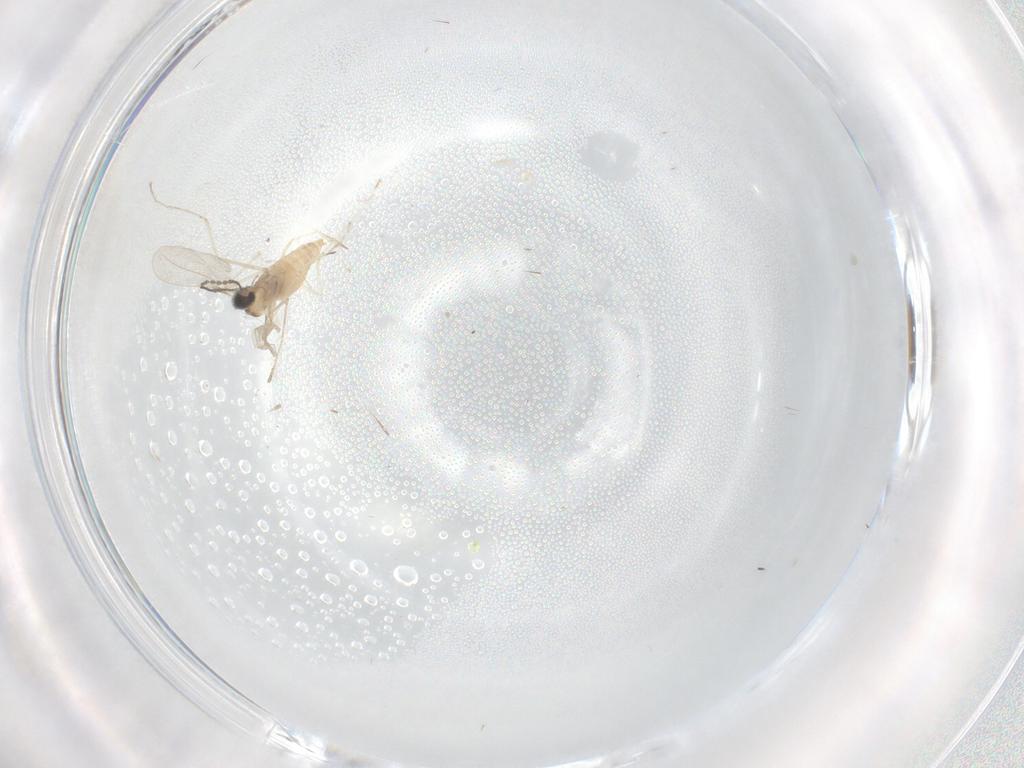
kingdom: Animalia
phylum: Arthropoda
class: Insecta
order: Diptera
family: Cecidomyiidae
